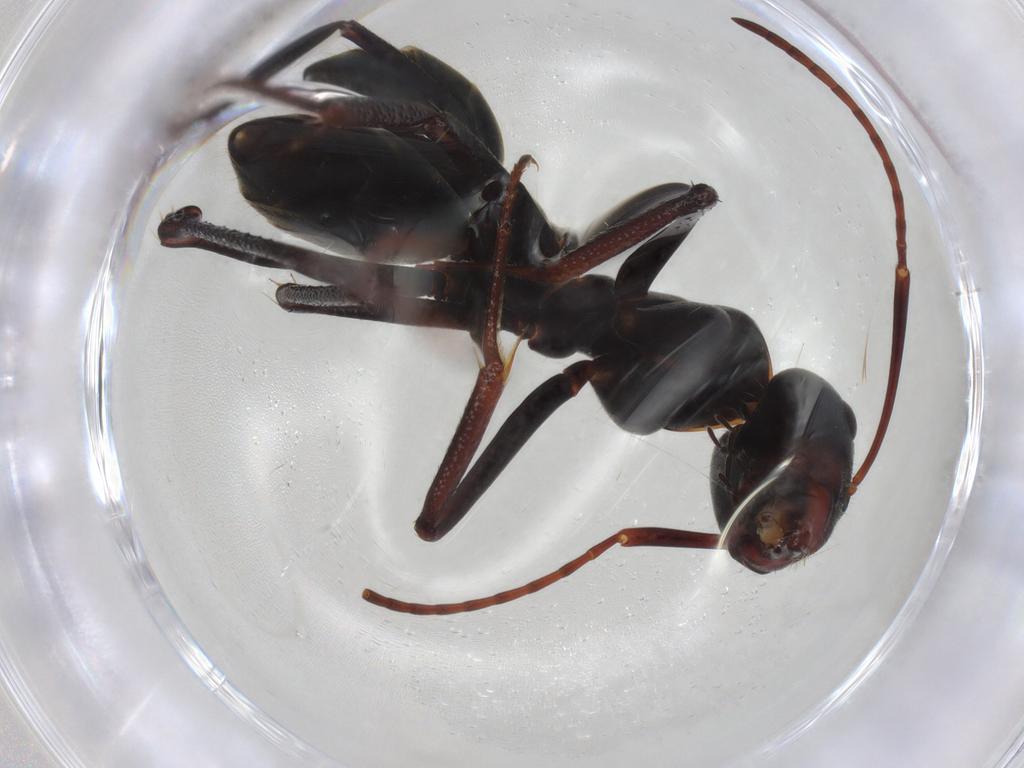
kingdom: Animalia
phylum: Arthropoda
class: Insecta
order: Hymenoptera
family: Formicidae
